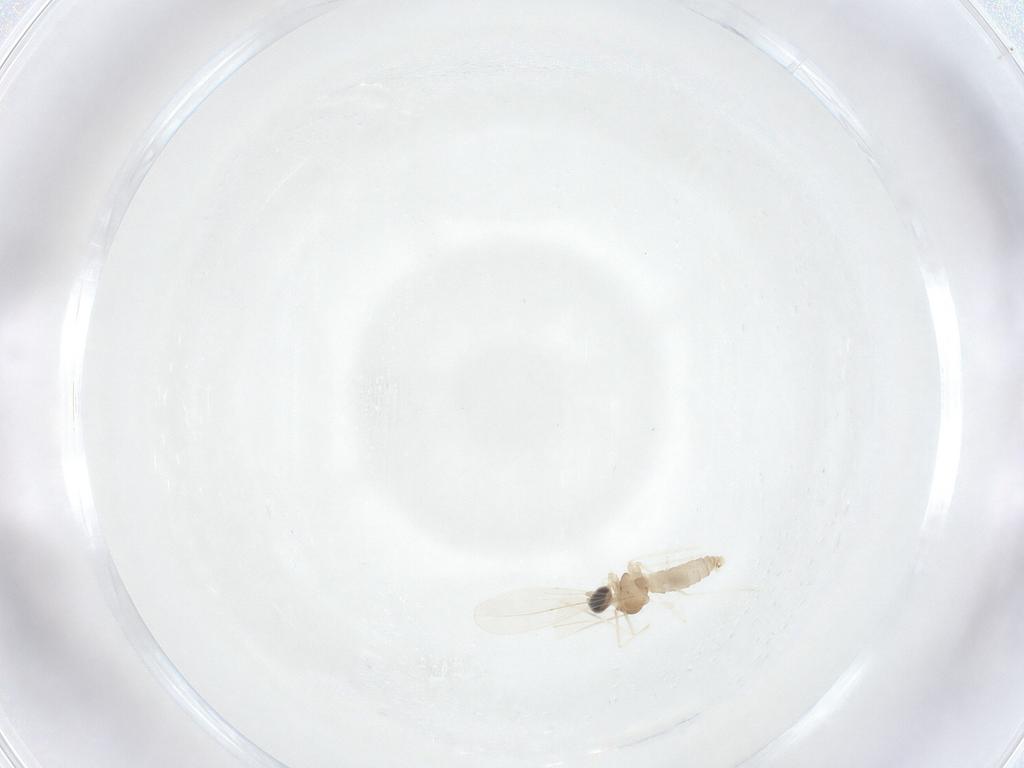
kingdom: Animalia
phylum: Arthropoda
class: Insecta
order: Diptera
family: Cecidomyiidae
